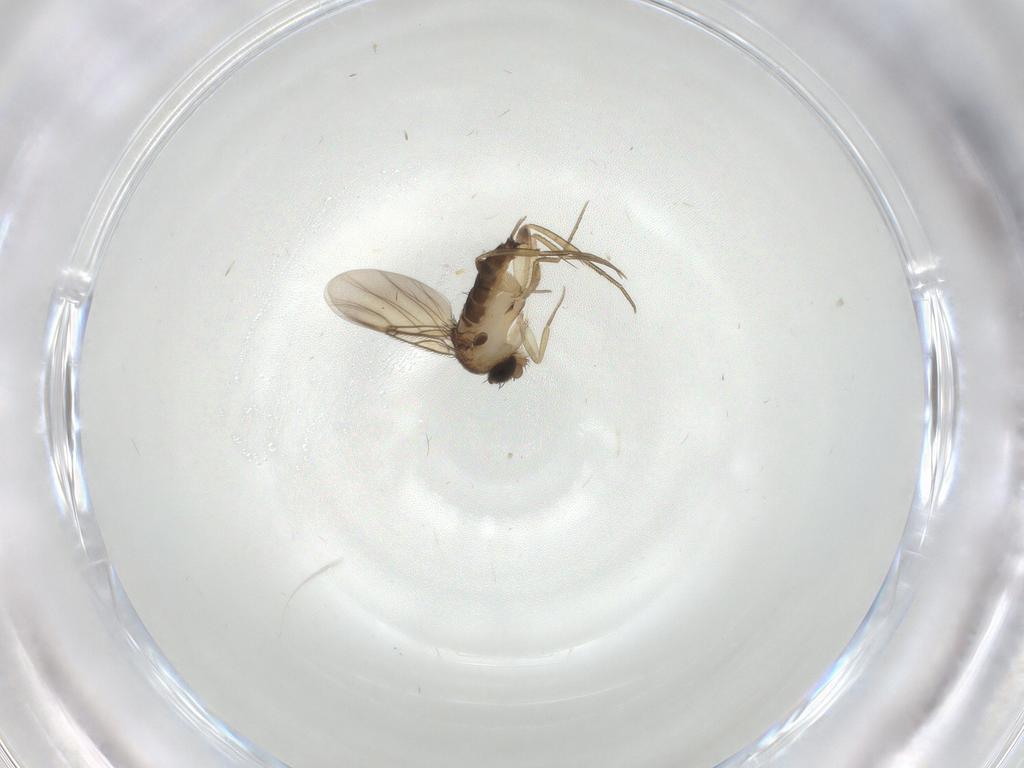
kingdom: Animalia
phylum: Arthropoda
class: Insecta
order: Diptera
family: Phoridae
